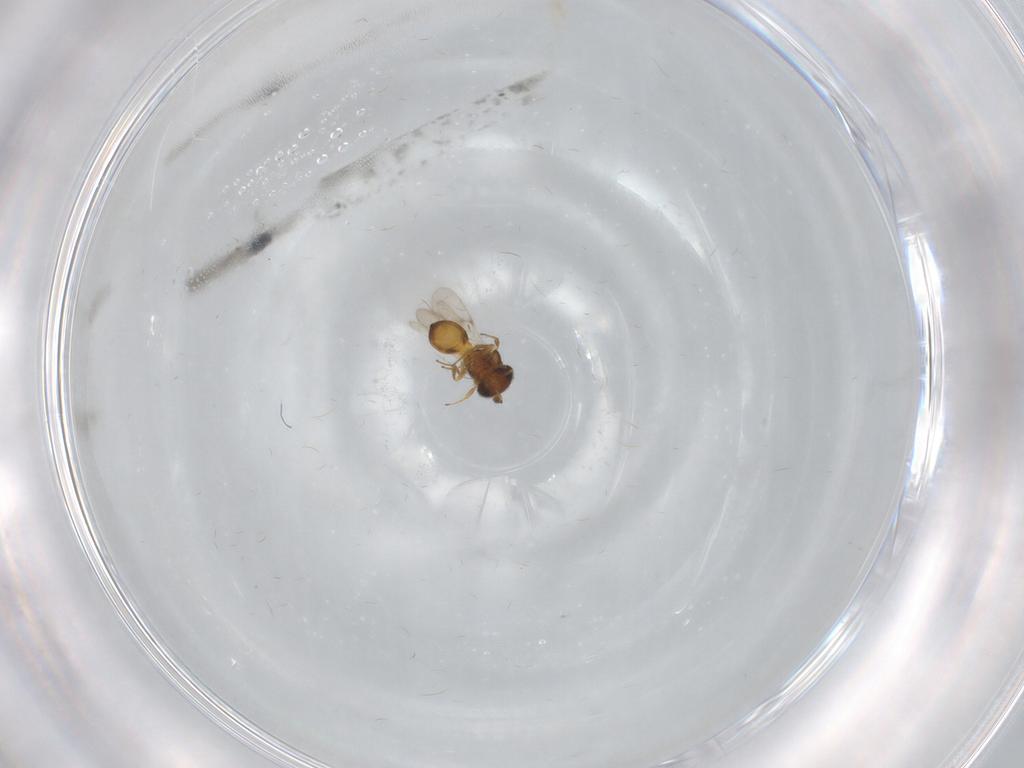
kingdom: Animalia
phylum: Arthropoda
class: Insecta
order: Hymenoptera
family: Scelionidae
